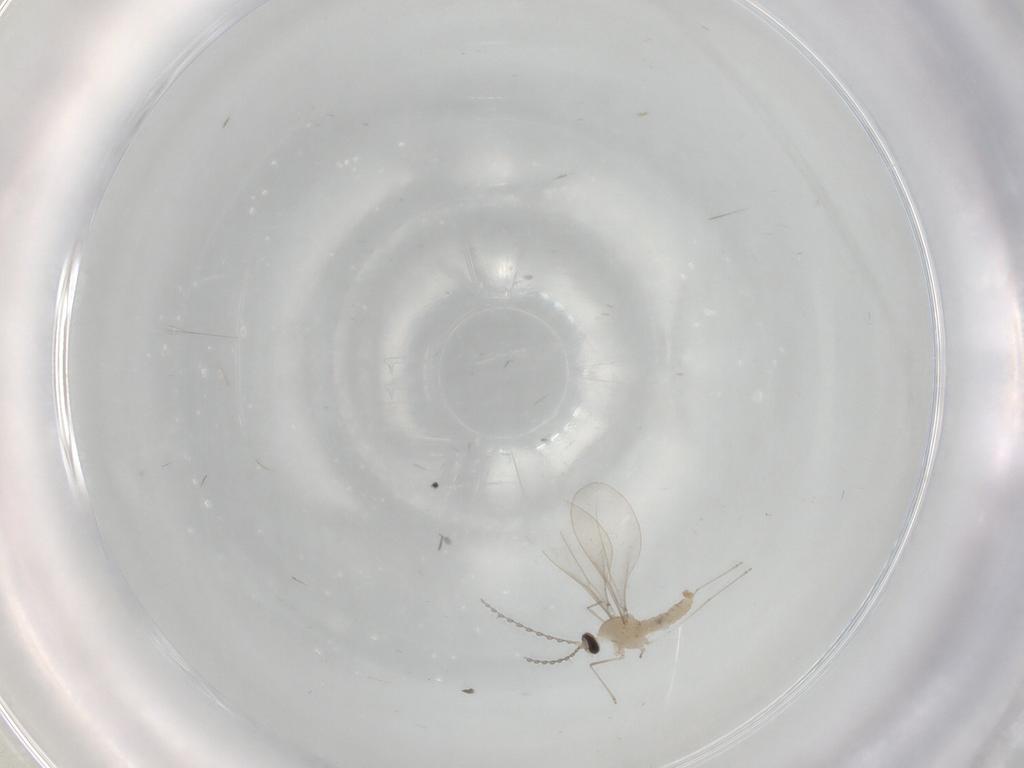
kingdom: Animalia
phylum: Arthropoda
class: Insecta
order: Diptera
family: Cecidomyiidae
